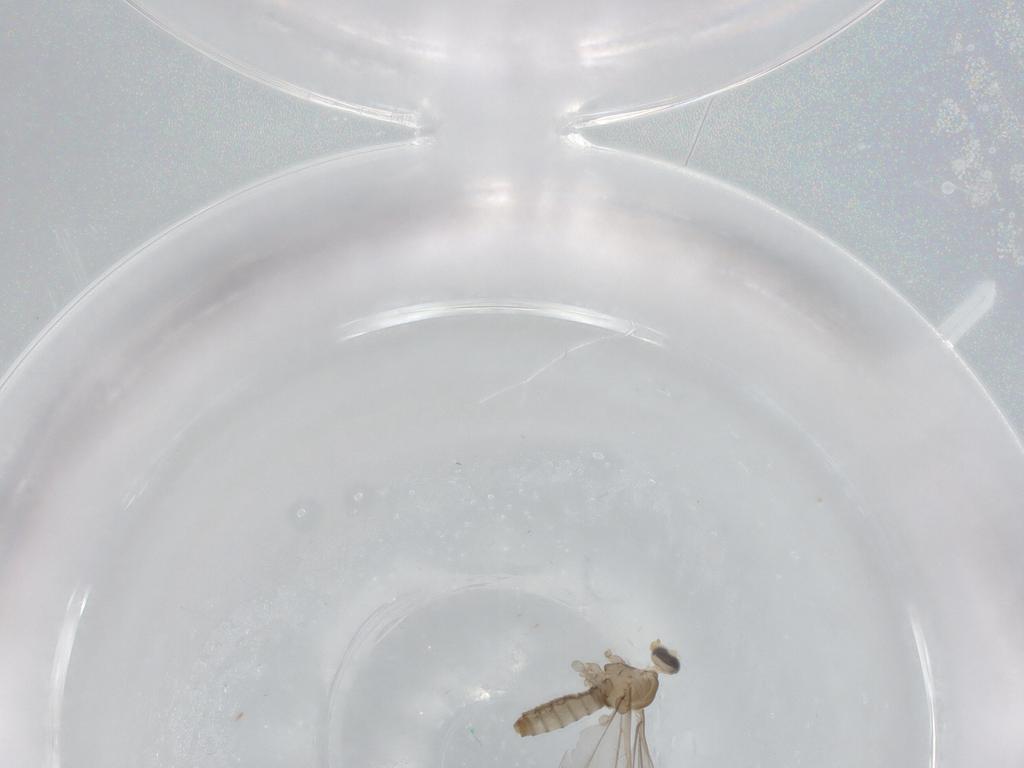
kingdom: Animalia
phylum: Arthropoda
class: Insecta
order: Diptera
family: Cecidomyiidae
